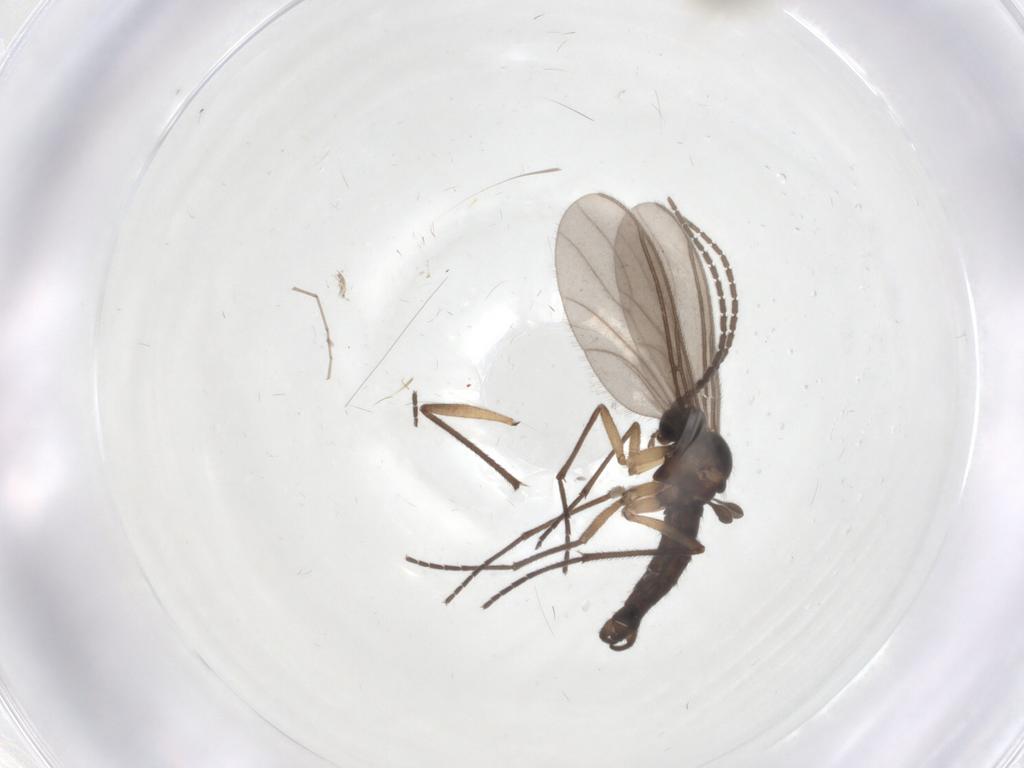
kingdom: Animalia
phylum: Arthropoda
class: Insecta
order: Diptera
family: Sciaridae
